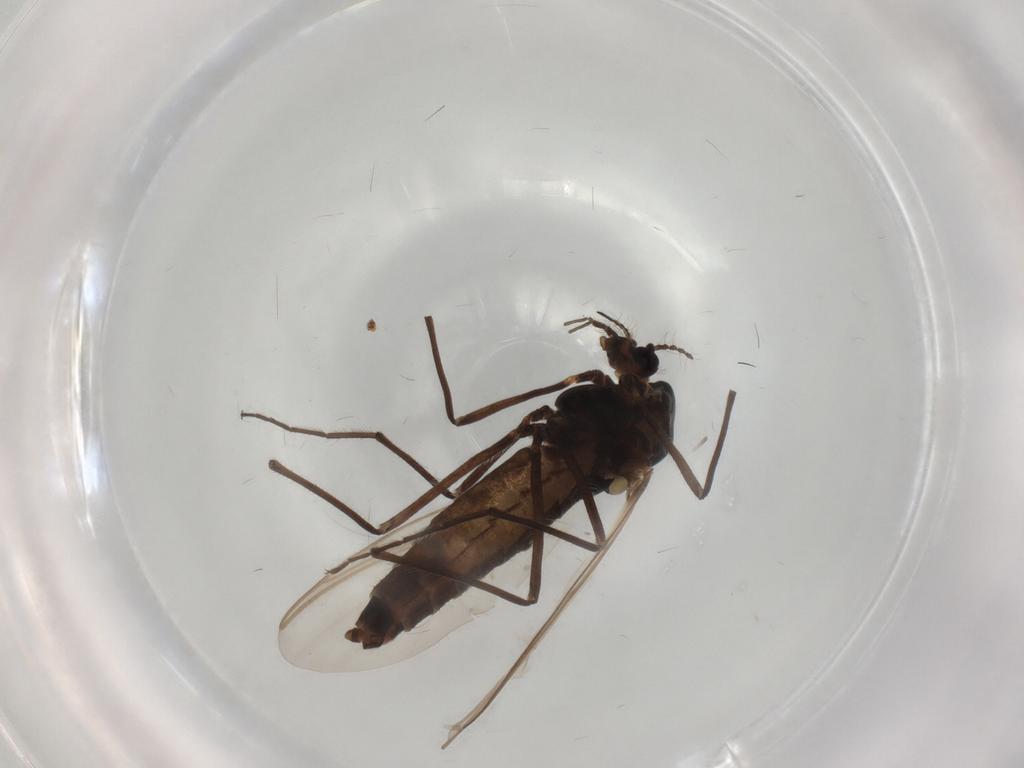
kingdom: Animalia
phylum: Arthropoda
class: Insecta
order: Diptera
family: Chironomidae
